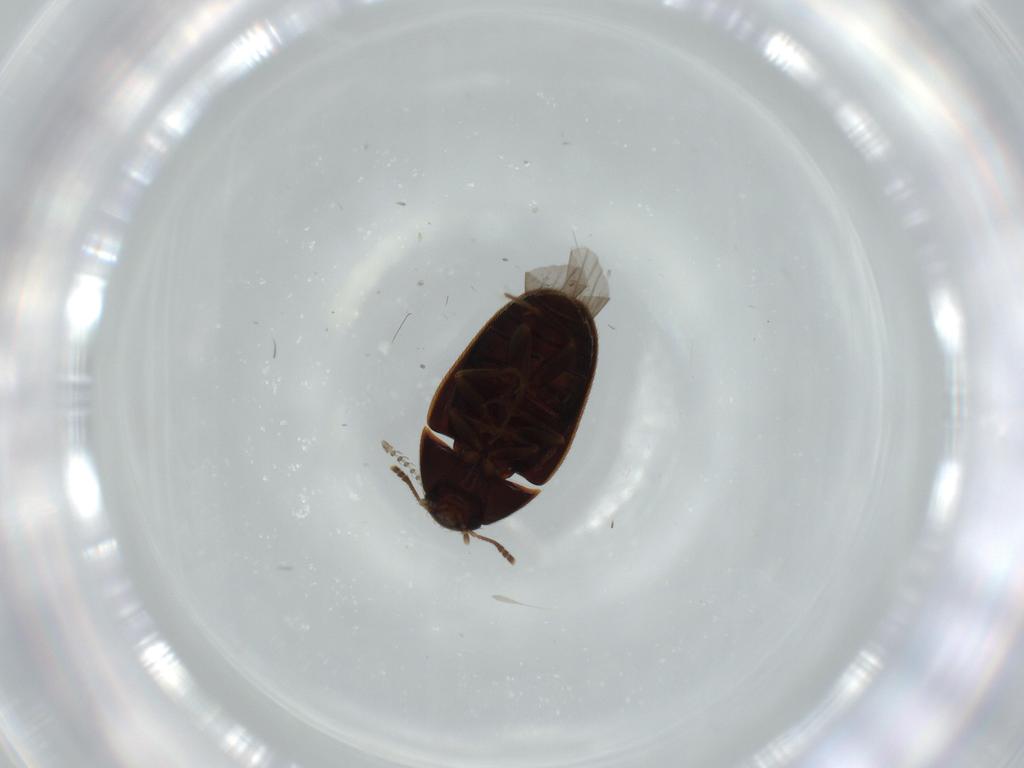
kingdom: Animalia
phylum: Arthropoda
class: Insecta
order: Coleoptera
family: Mycetophagidae
